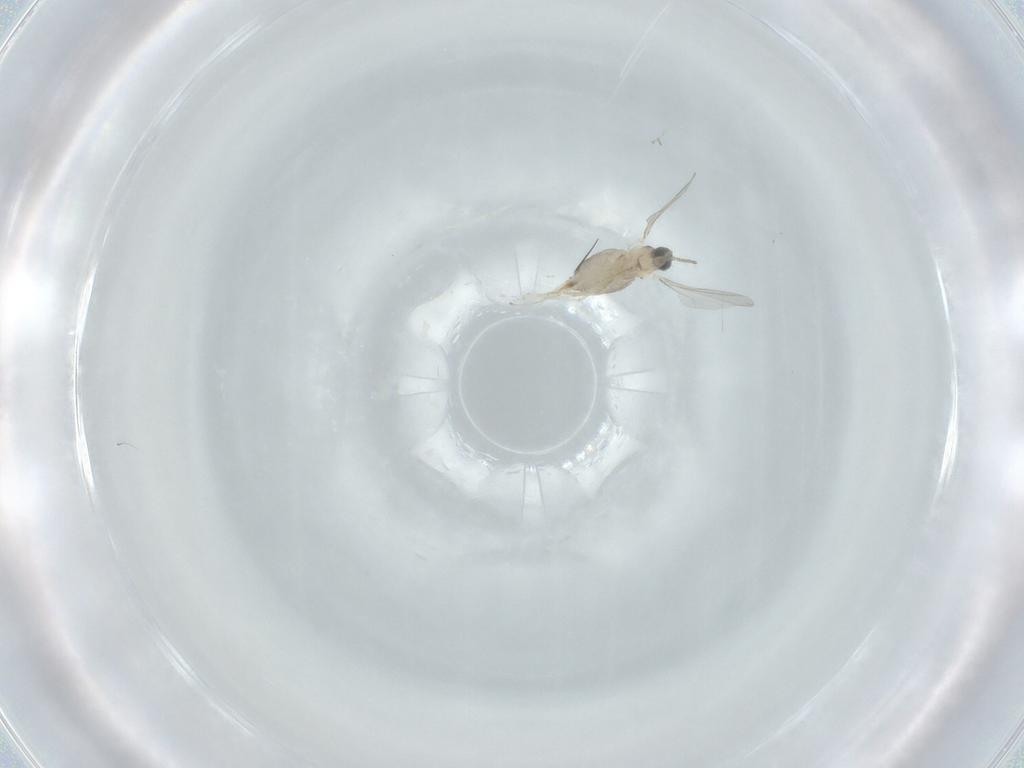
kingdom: Animalia
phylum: Arthropoda
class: Insecta
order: Diptera
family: Cecidomyiidae
